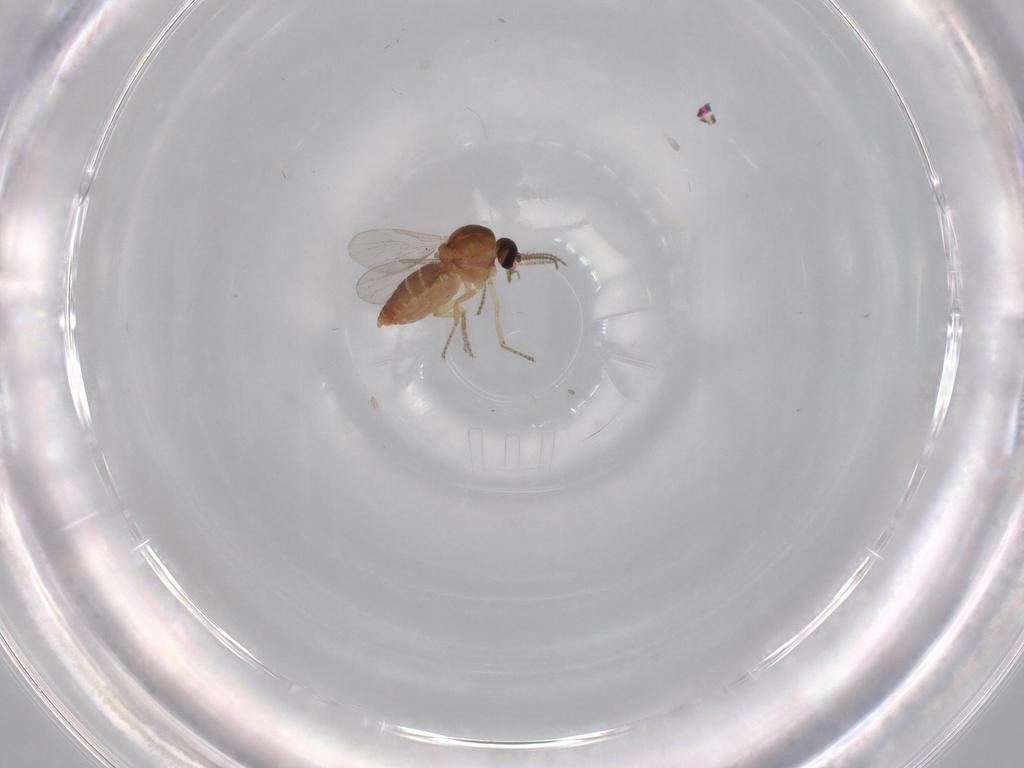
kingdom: Animalia
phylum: Arthropoda
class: Insecta
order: Diptera
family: Ceratopogonidae
